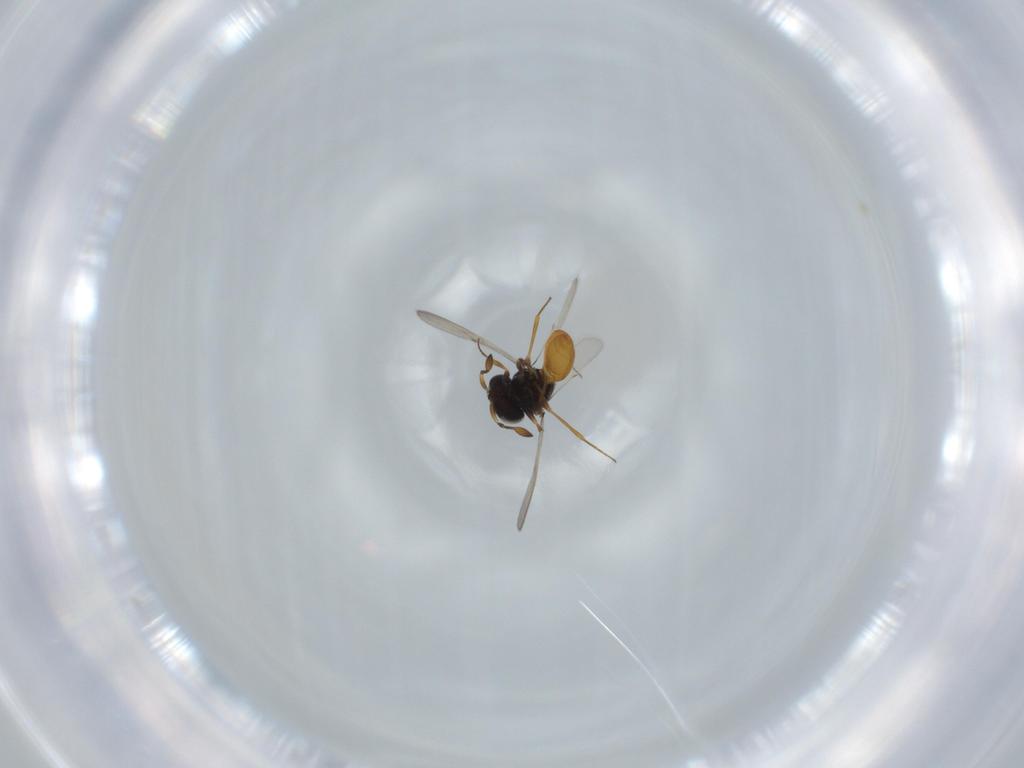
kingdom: Animalia
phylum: Arthropoda
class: Insecta
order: Hymenoptera
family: Scelionidae
